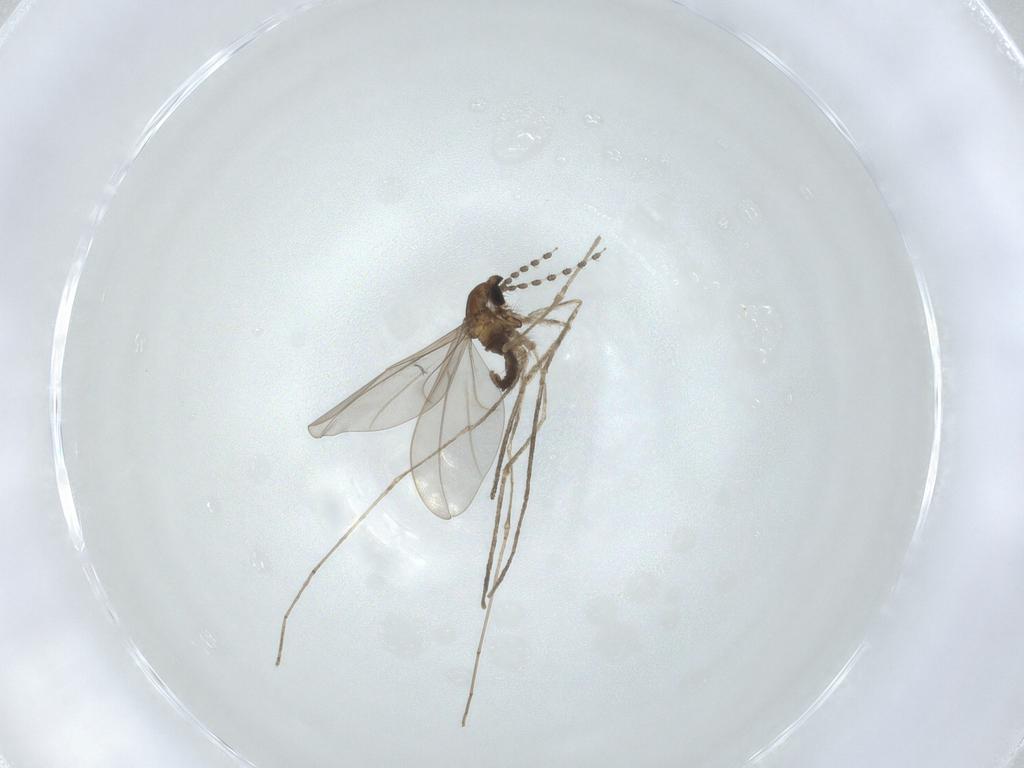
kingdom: Animalia
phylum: Arthropoda
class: Insecta
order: Diptera
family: Cecidomyiidae
